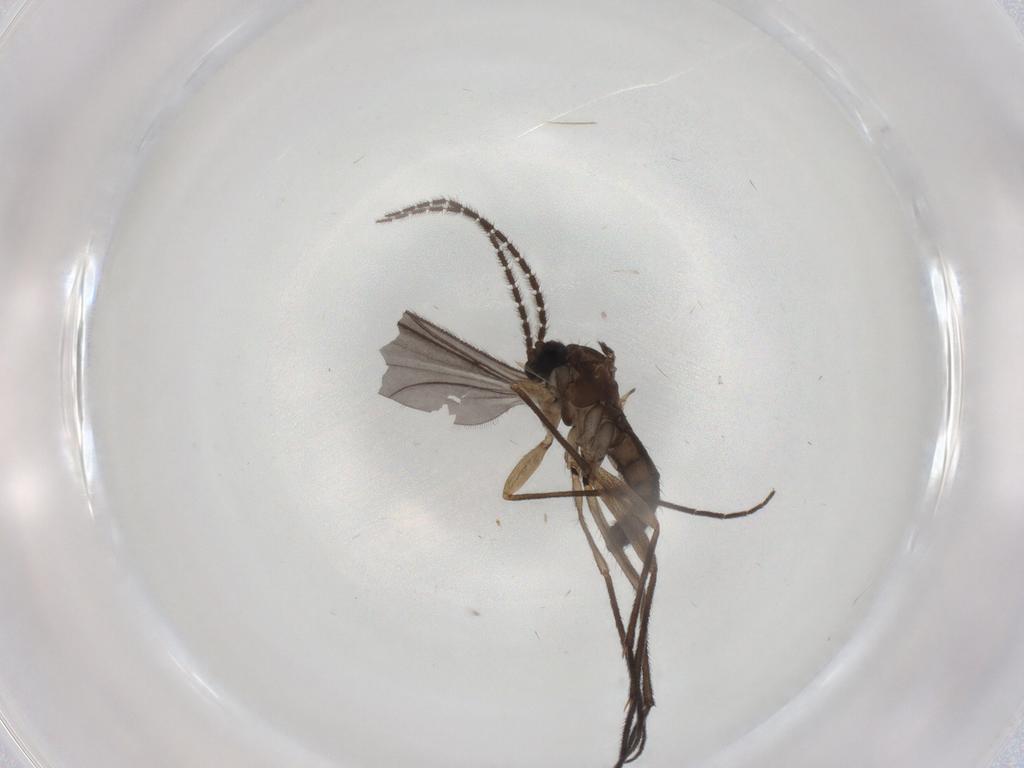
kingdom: Animalia
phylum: Arthropoda
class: Insecta
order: Diptera
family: Sciaridae
